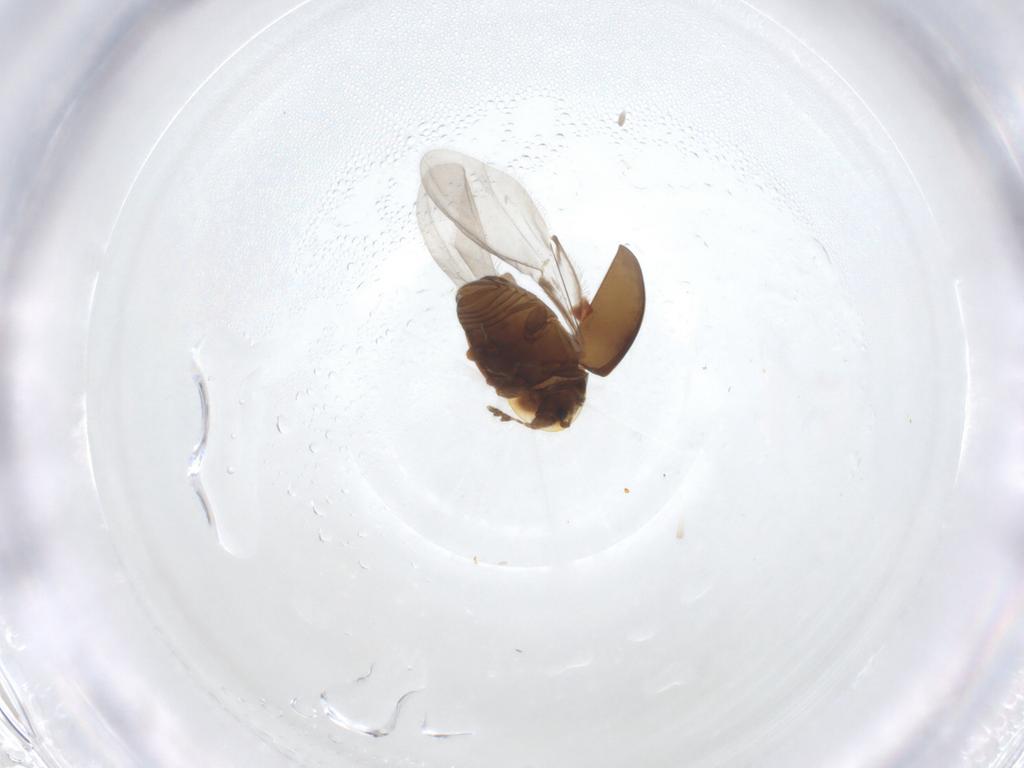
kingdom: Animalia
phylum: Arthropoda
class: Insecta
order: Coleoptera
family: Corylophidae
